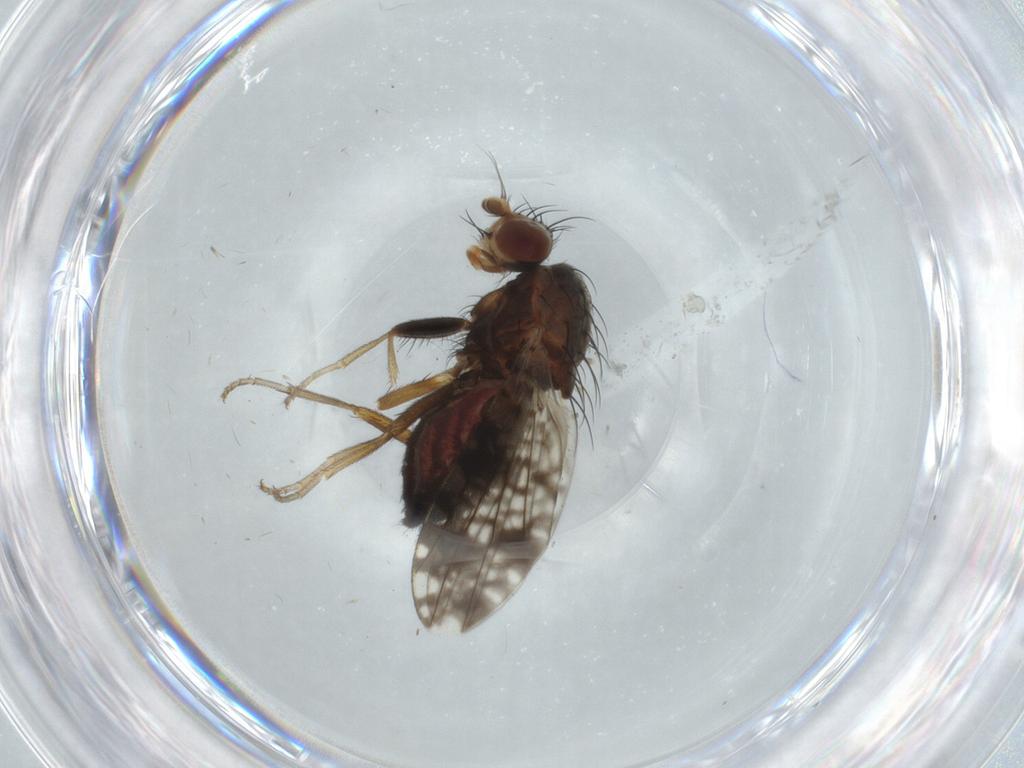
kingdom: Animalia
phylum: Arthropoda
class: Insecta
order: Diptera
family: Tephritidae
